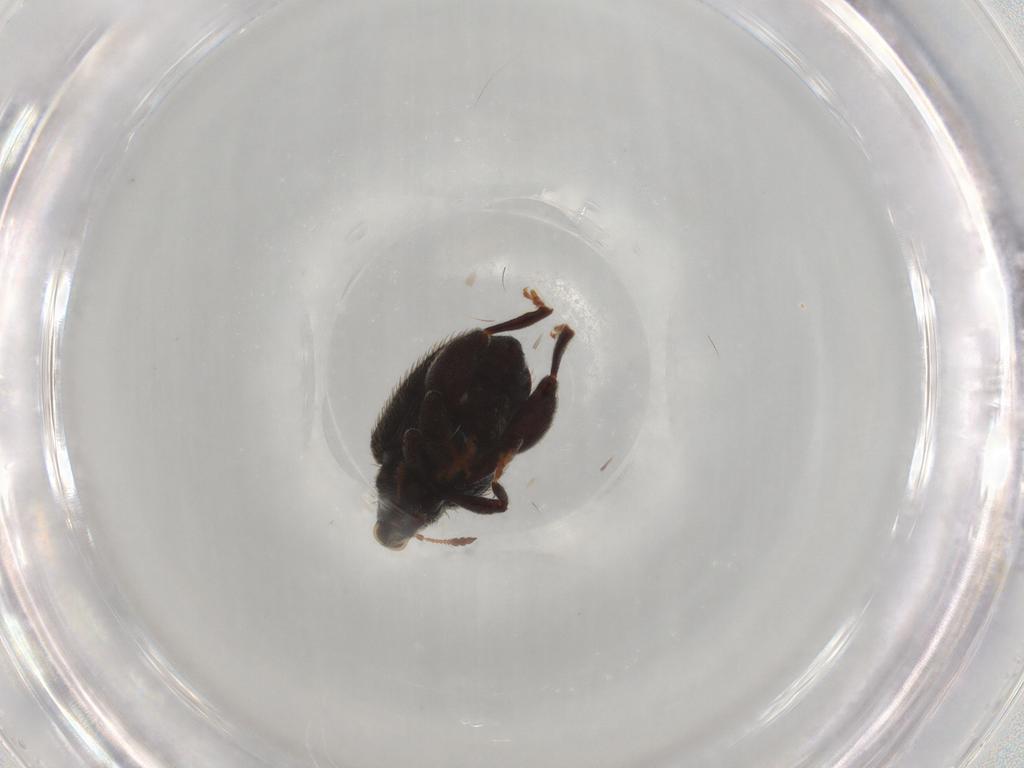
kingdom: Animalia
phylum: Arthropoda
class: Insecta
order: Coleoptera
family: Curculionidae
